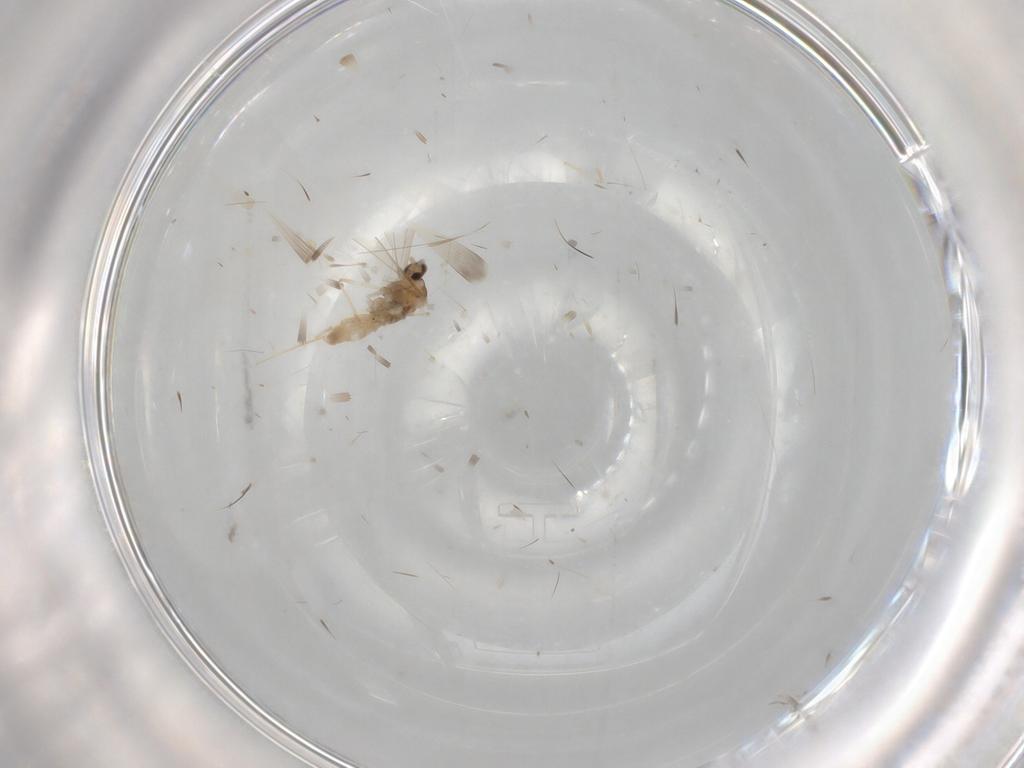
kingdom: Animalia
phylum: Arthropoda
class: Insecta
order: Diptera
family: Cecidomyiidae
